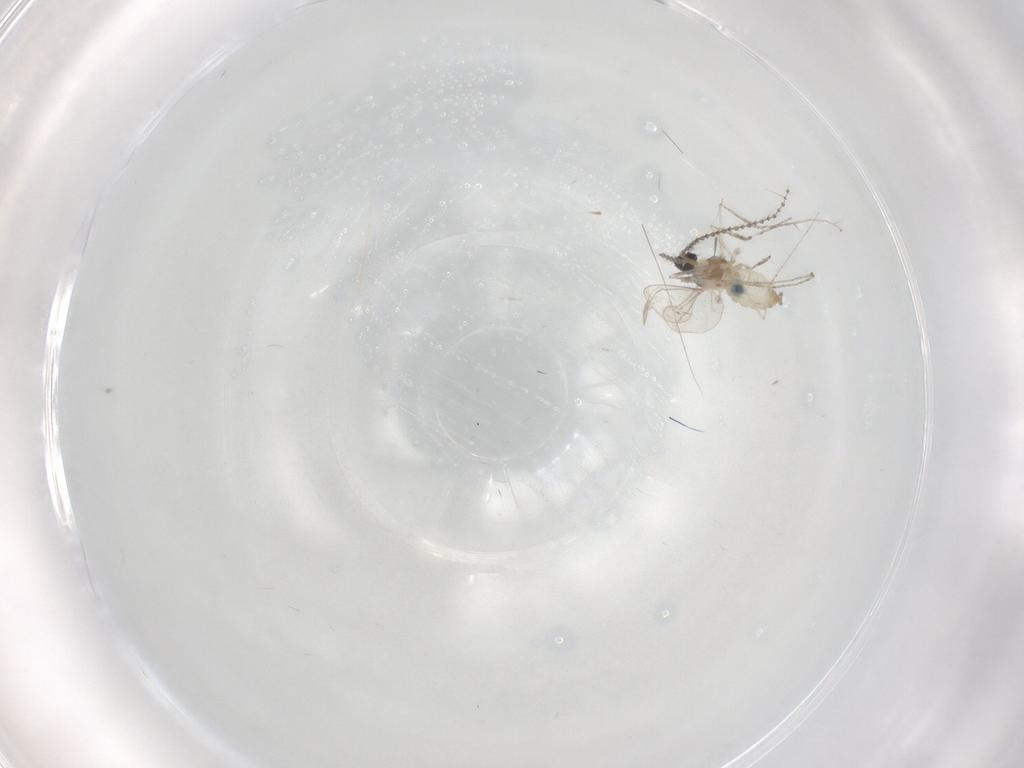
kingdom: Animalia
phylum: Arthropoda
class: Insecta
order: Diptera
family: Cecidomyiidae
